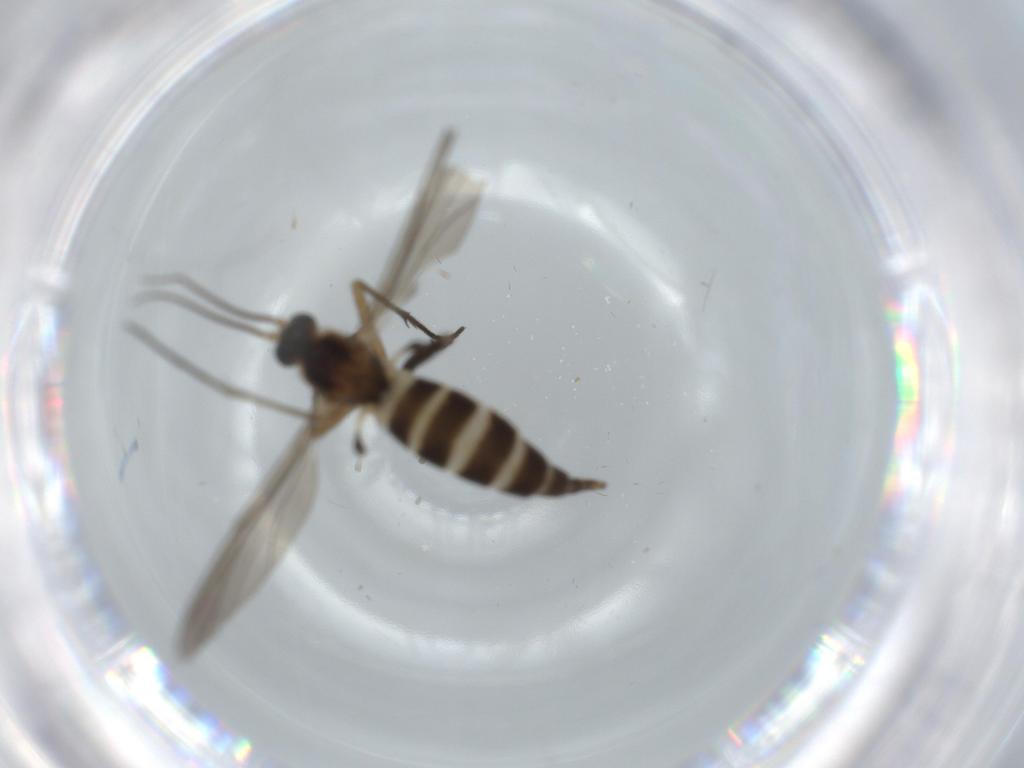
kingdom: Animalia
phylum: Arthropoda
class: Insecta
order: Diptera
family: Sciaridae
